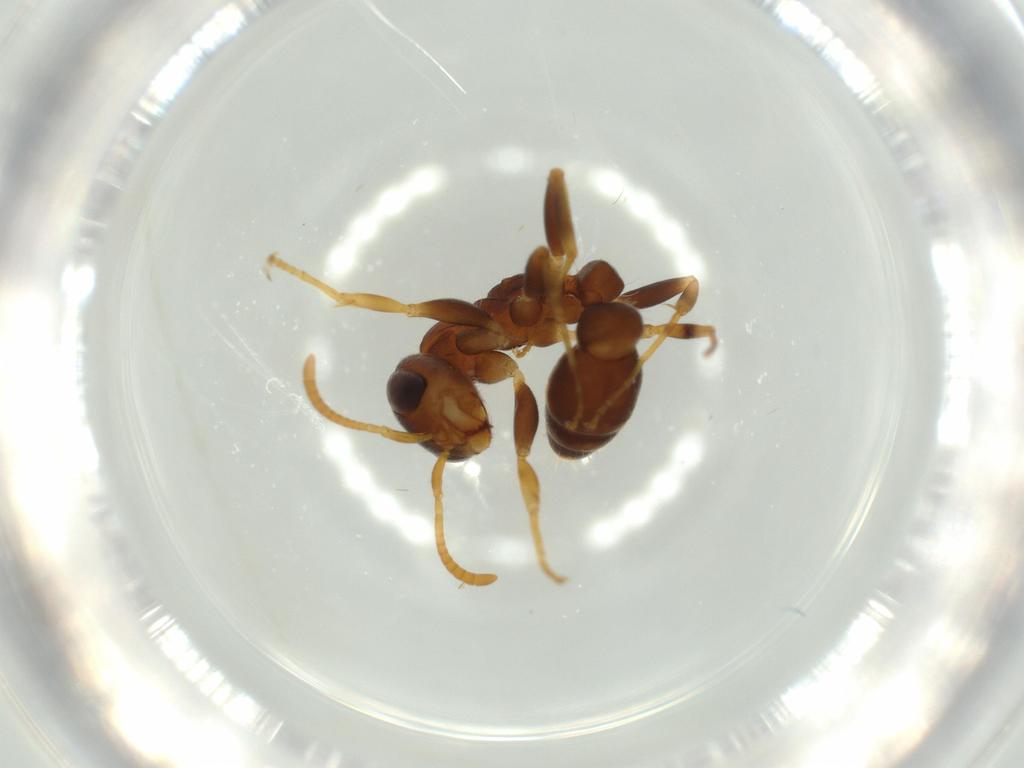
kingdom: Animalia
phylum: Arthropoda
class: Insecta
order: Hymenoptera
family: Formicidae
